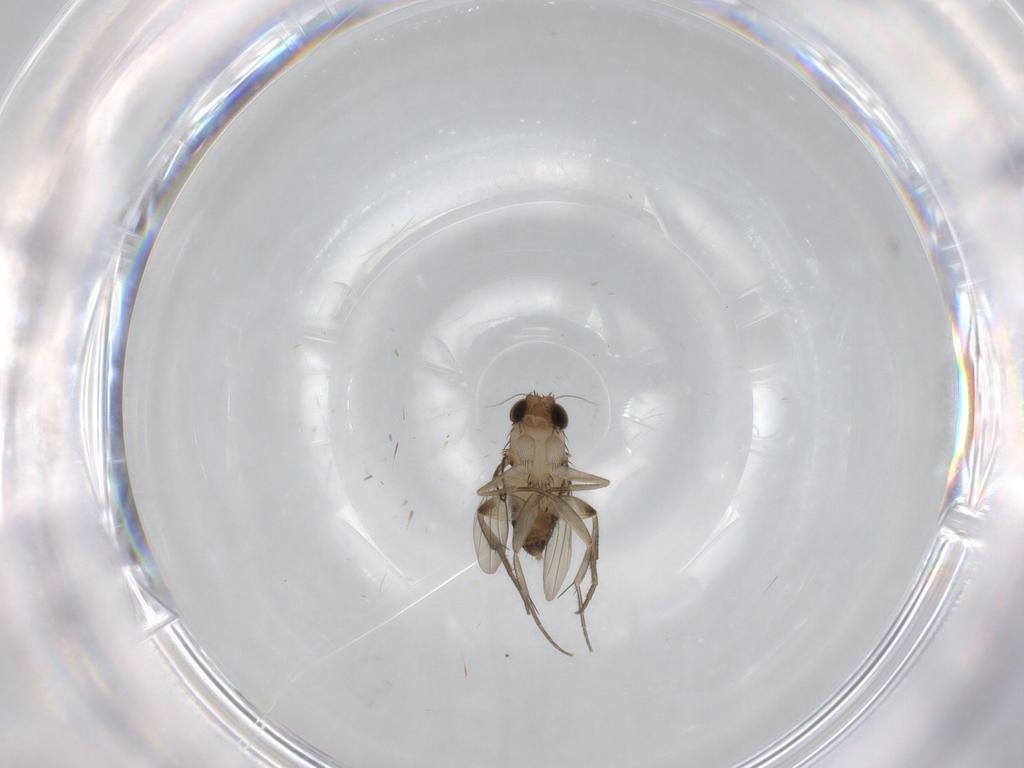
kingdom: Animalia
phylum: Arthropoda
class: Insecta
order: Diptera
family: Phoridae
